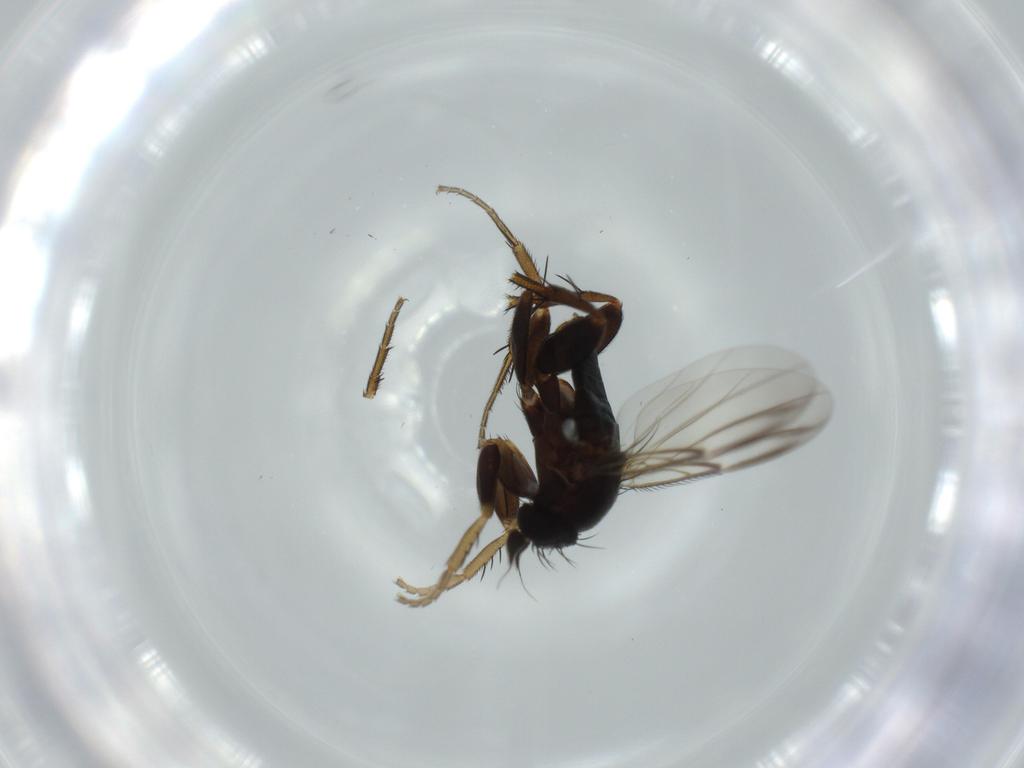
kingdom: Animalia
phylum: Arthropoda
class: Insecta
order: Diptera
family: Phoridae
